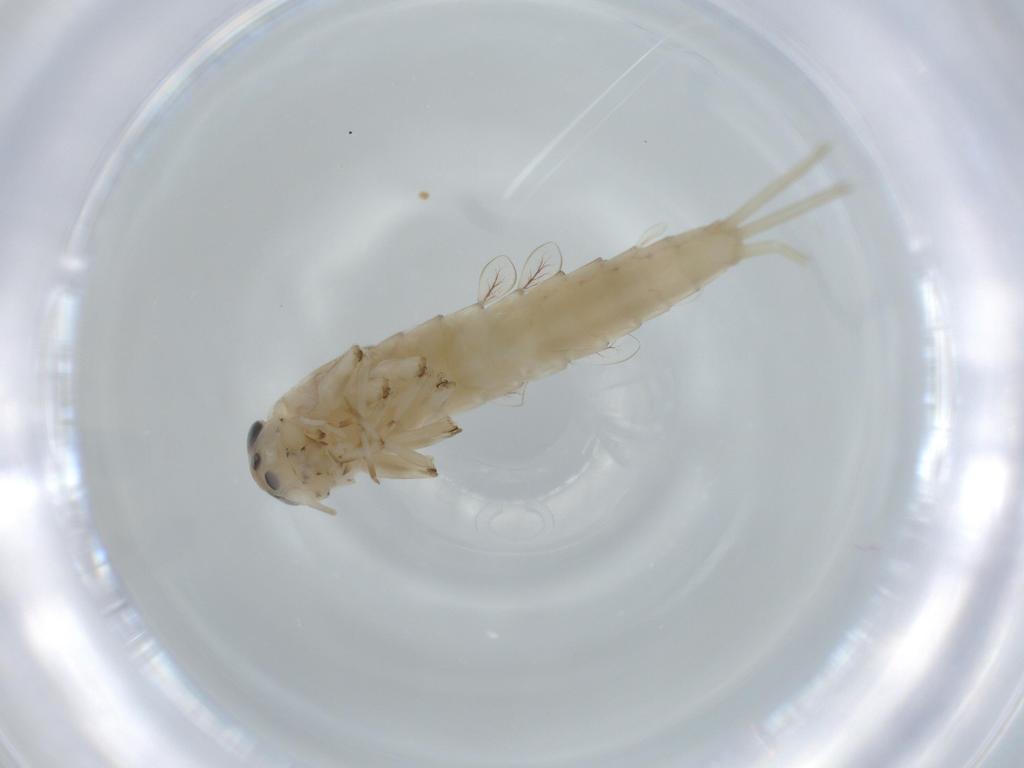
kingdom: Animalia
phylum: Arthropoda
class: Insecta
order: Ephemeroptera
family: Baetidae
